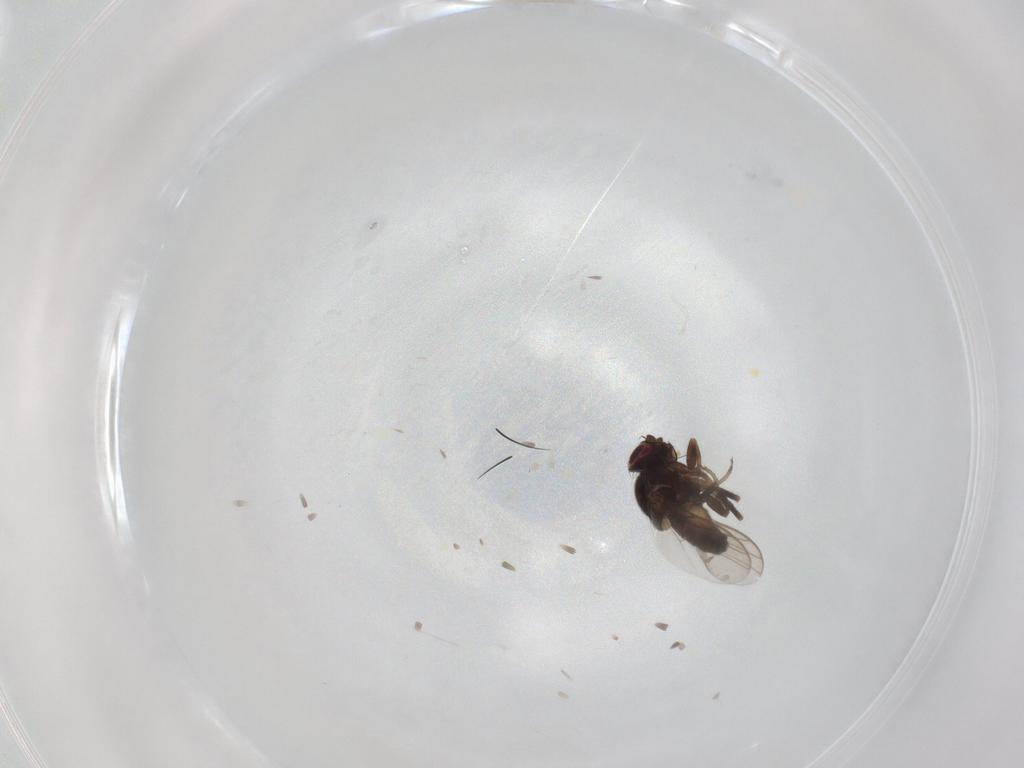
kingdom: Animalia
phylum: Arthropoda
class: Insecta
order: Diptera
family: Chloropidae
